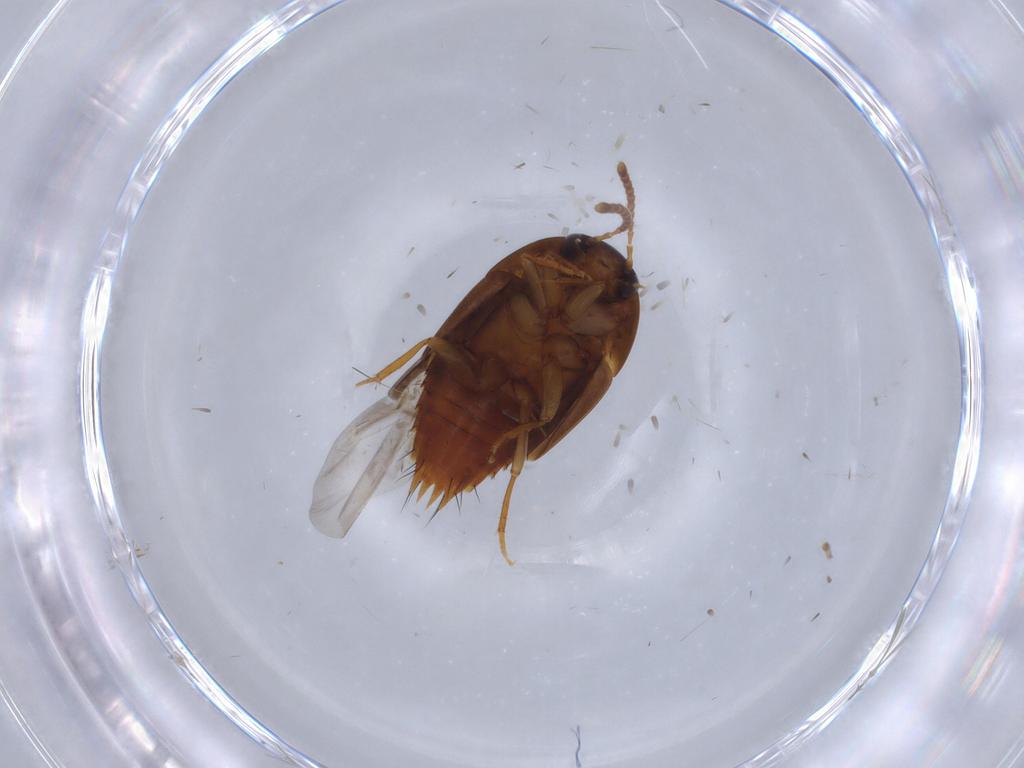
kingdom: Animalia
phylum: Arthropoda
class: Insecta
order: Coleoptera
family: Staphylinidae
